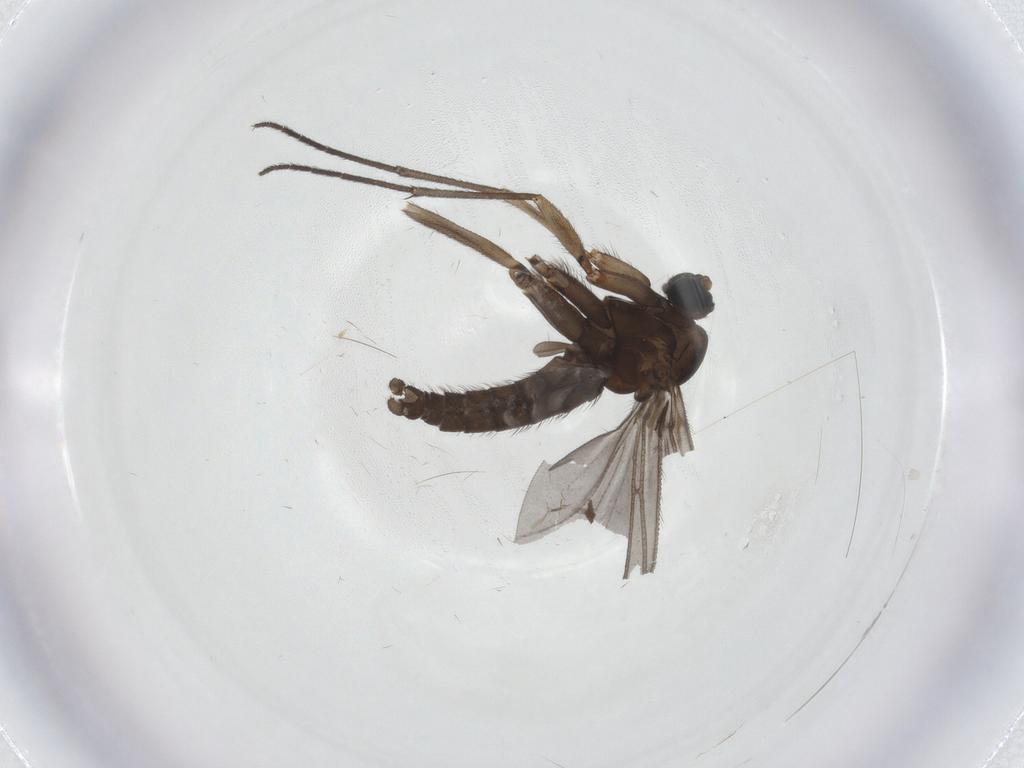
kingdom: Animalia
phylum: Arthropoda
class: Insecta
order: Diptera
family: Sciaridae
